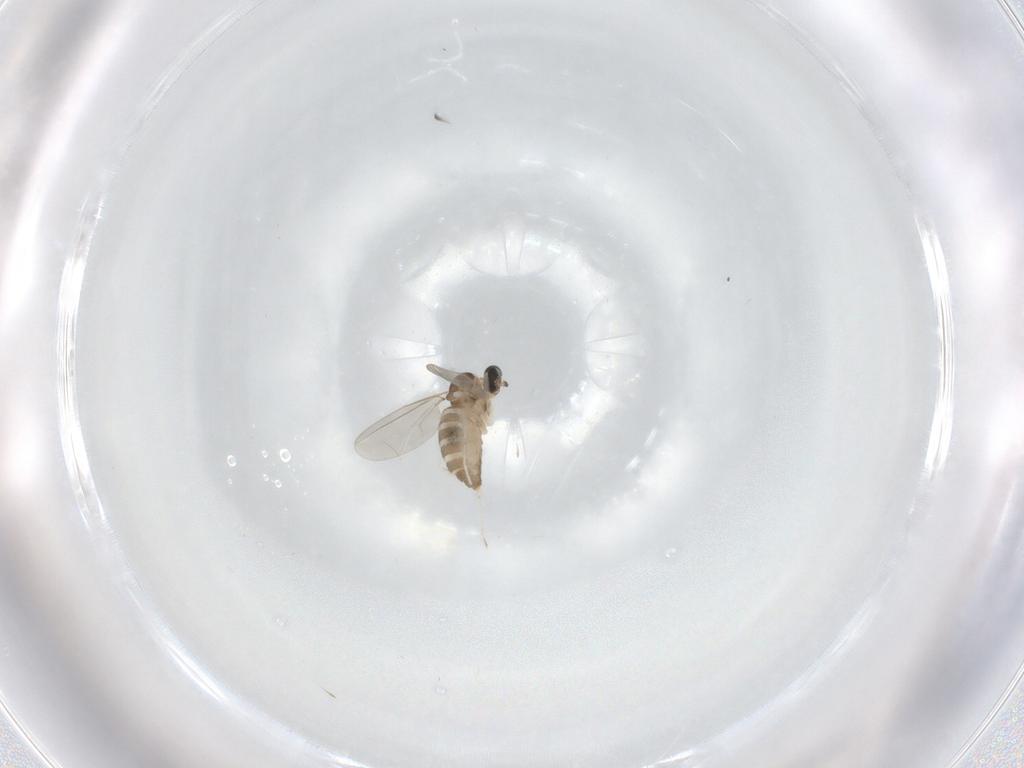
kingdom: Animalia
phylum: Arthropoda
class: Insecta
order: Diptera
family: Cecidomyiidae
